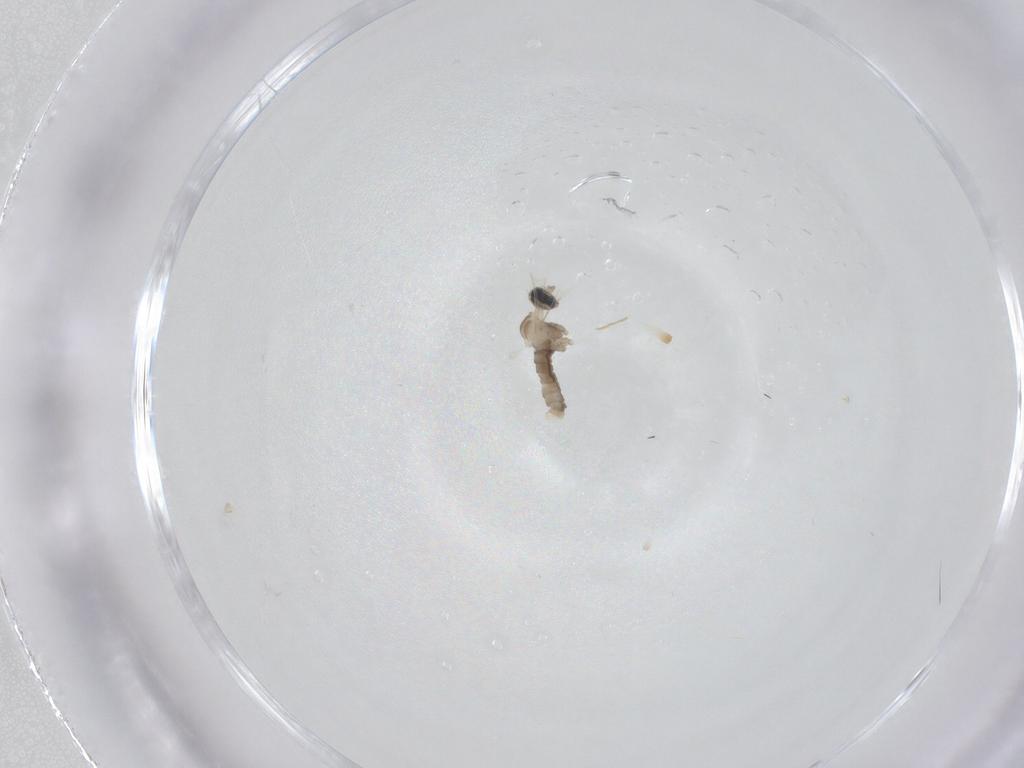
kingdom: Animalia
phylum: Arthropoda
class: Insecta
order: Diptera
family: Cecidomyiidae
